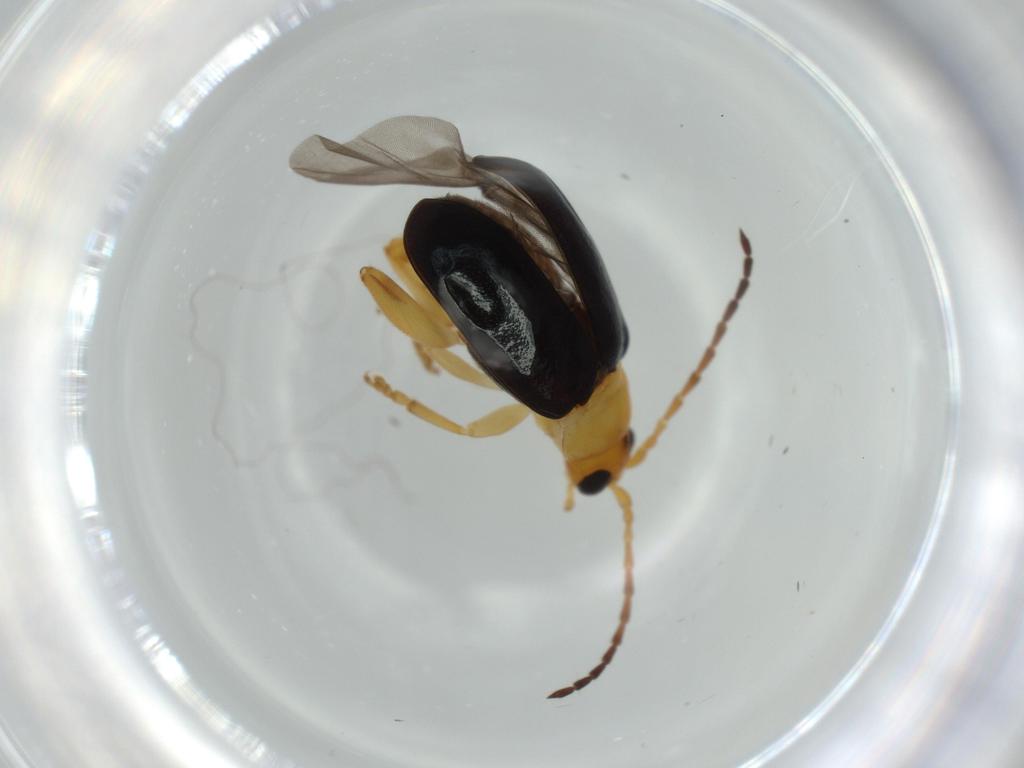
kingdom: Animalia
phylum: Arthropoda
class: Insecta
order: Coleoptera
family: Chrysomelidae
